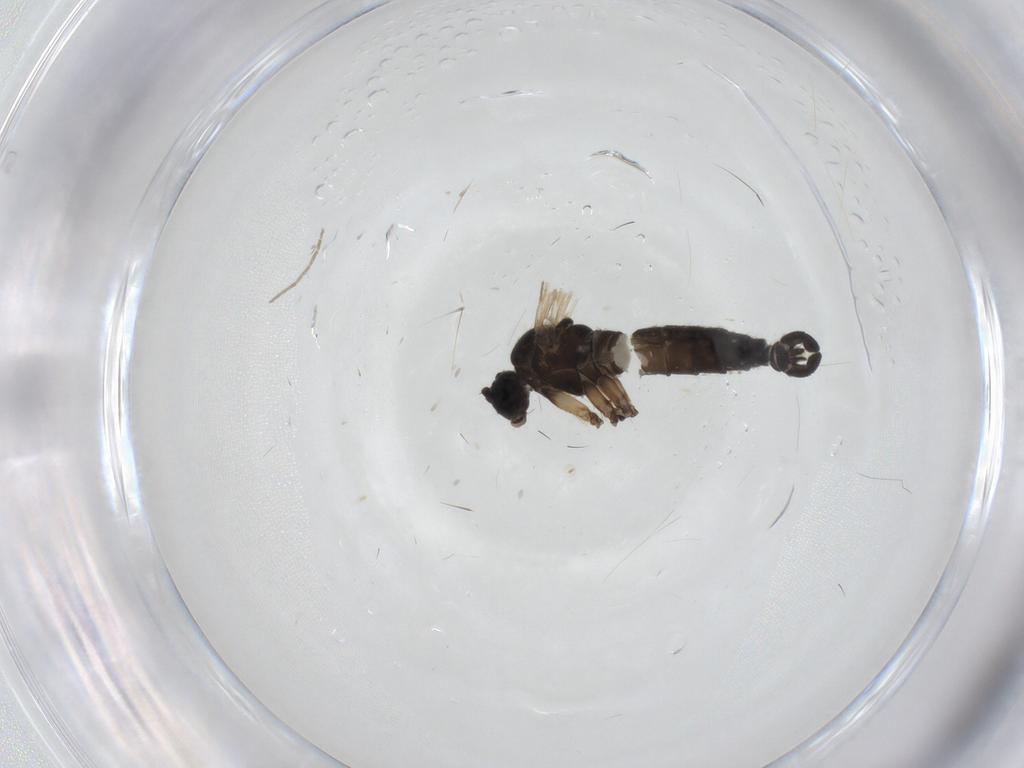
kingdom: Animalia
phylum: Arthropoda
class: Insecta
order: Diptera
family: Sciaridae
